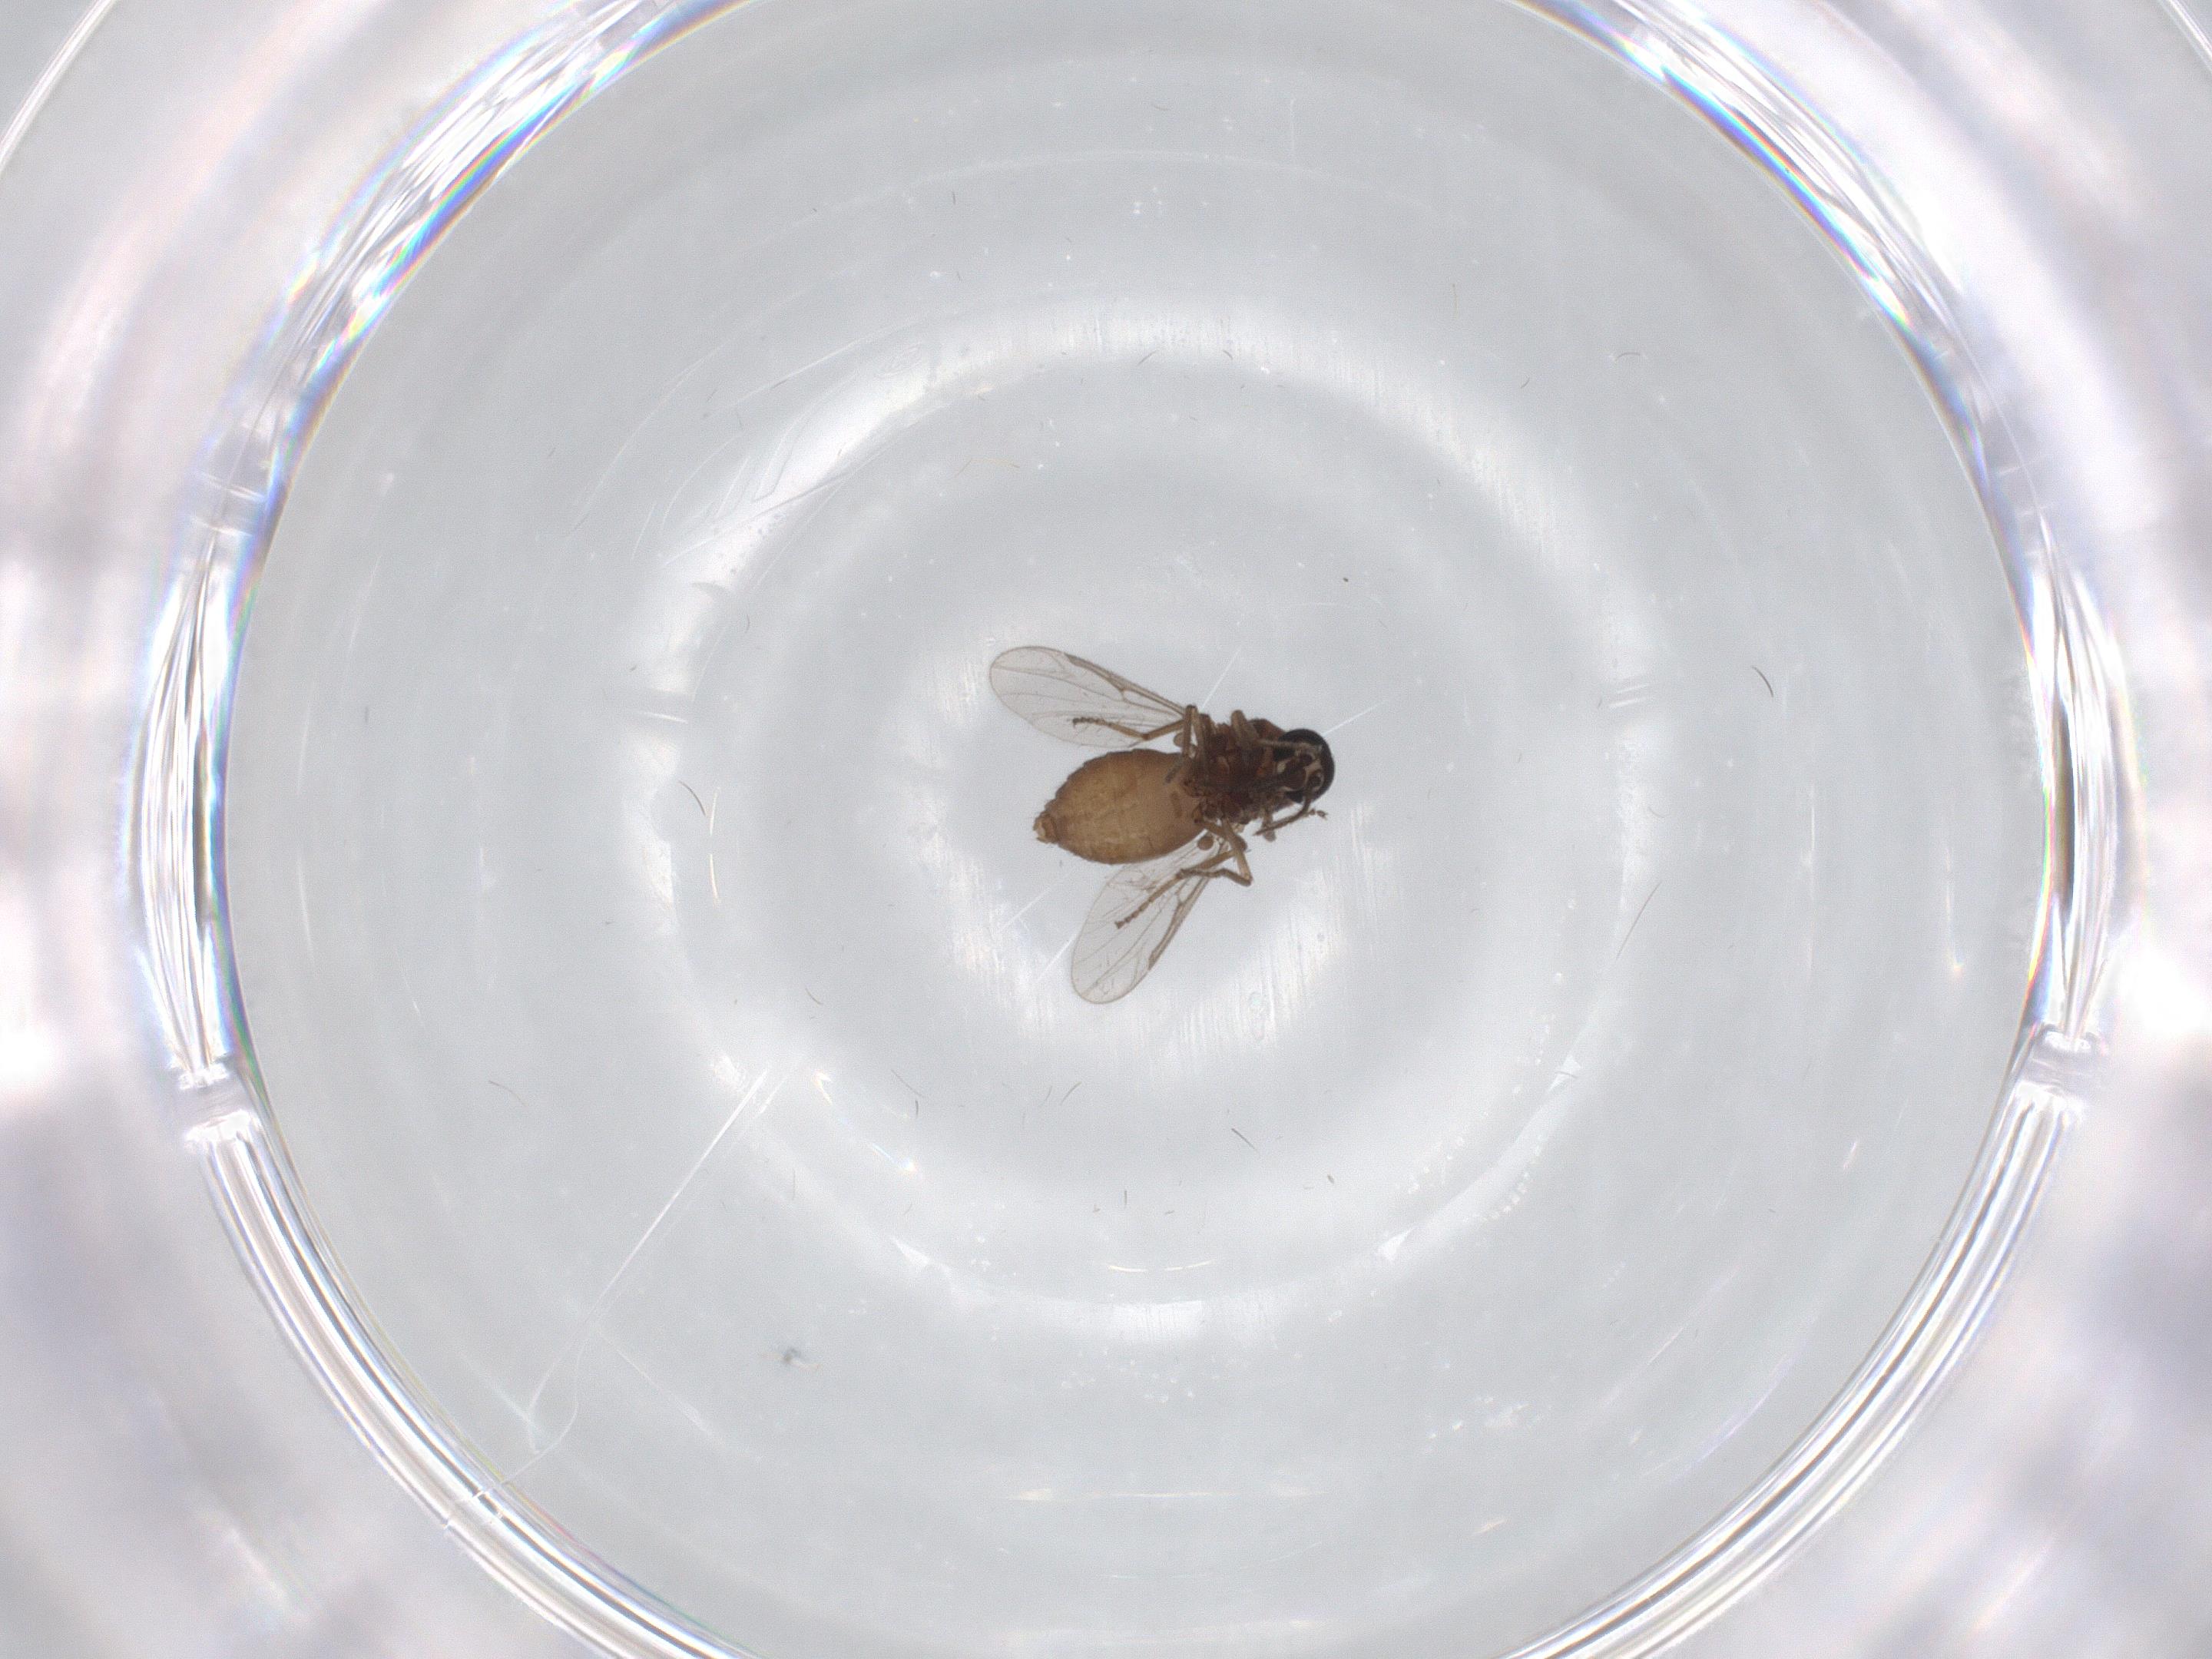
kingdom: Animalia
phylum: Arthropoda
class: Insecta
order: Diptera
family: Ceratopogonidae
